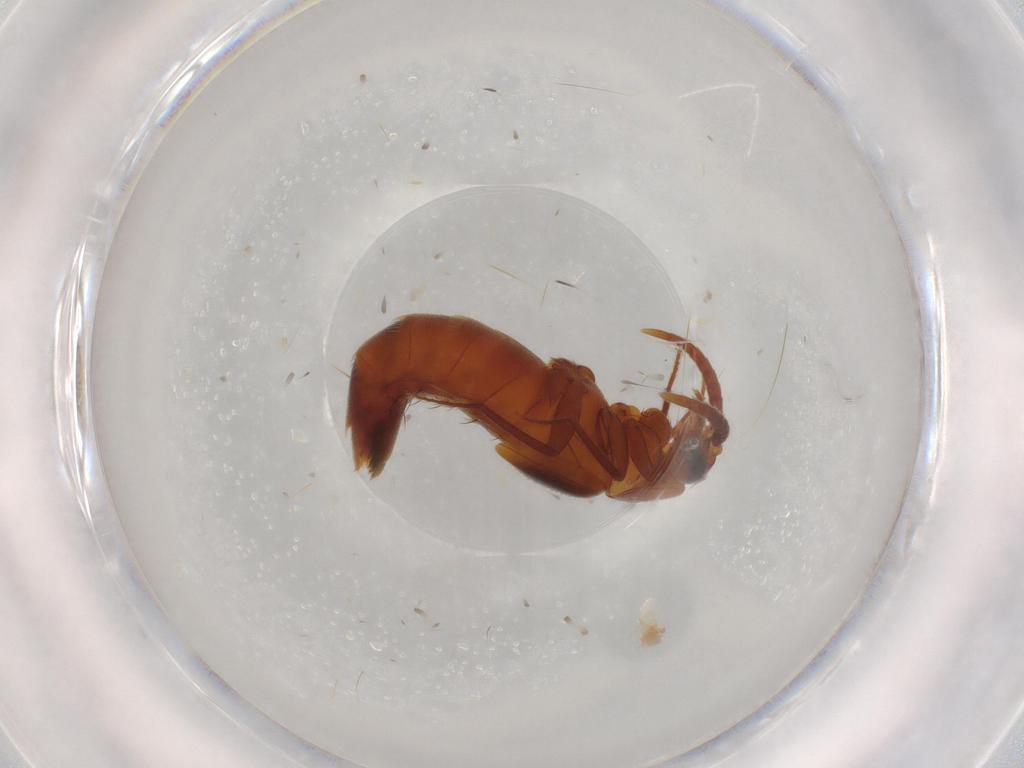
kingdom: Animalia
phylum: Arthropoda
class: Insecta
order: Coleoptera
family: Staphylinidae
